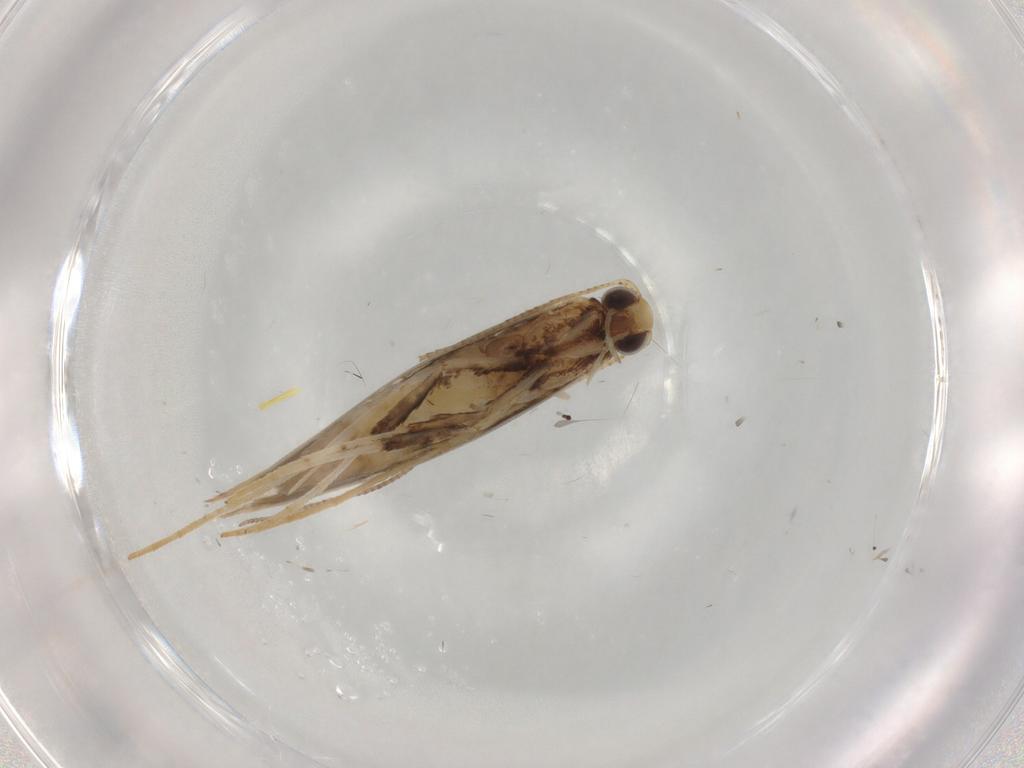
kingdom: Animalia
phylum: Arthropoda
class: Insecta
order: Lepidoptera
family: Gracillariidae
